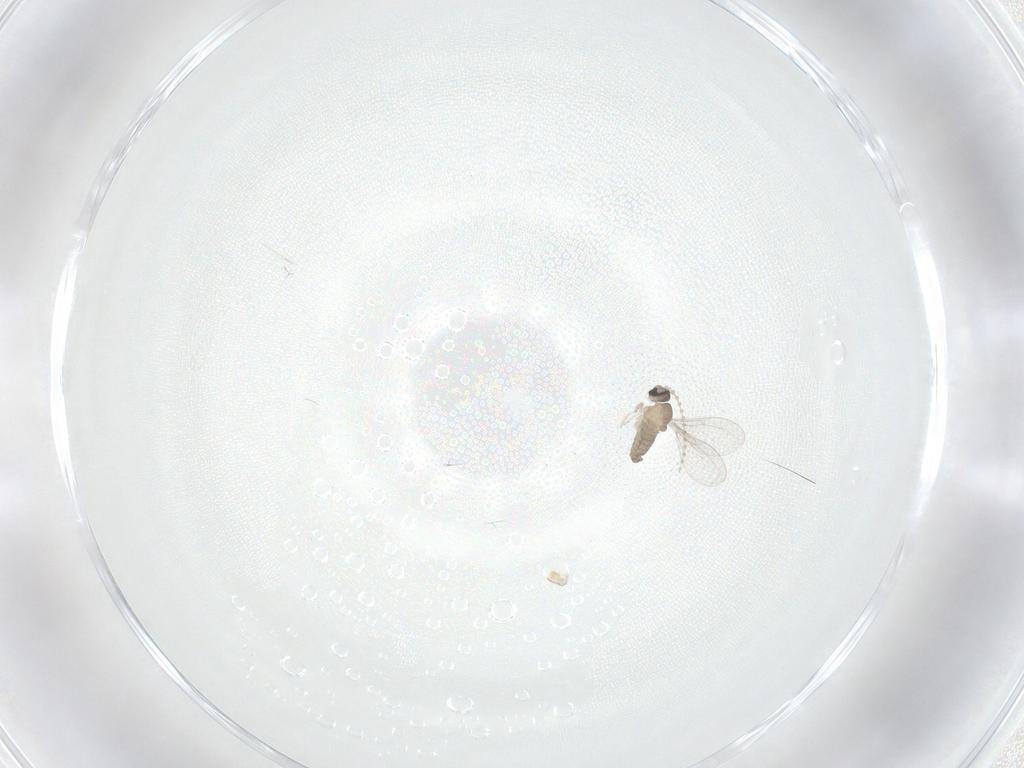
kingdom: Animalia
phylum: Arthropoda
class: Insecta
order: Diptera
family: Cecidomyiidae
